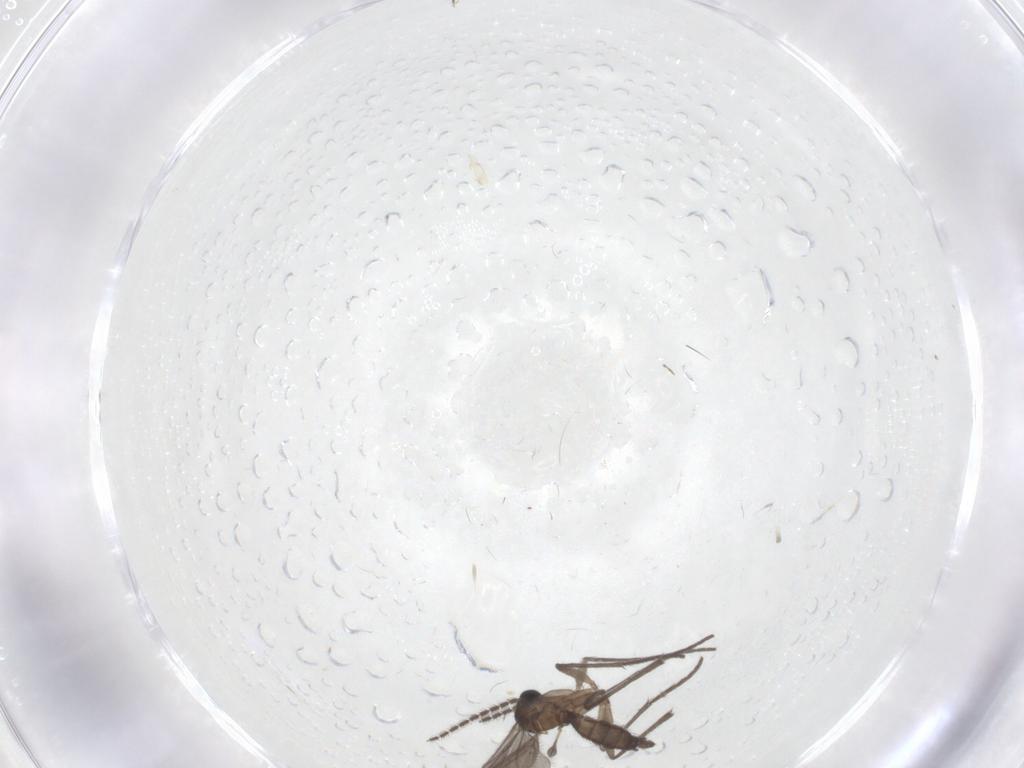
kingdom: Animalia
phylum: Arthropoda
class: Insecta
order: Diptera
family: Sciaridae
